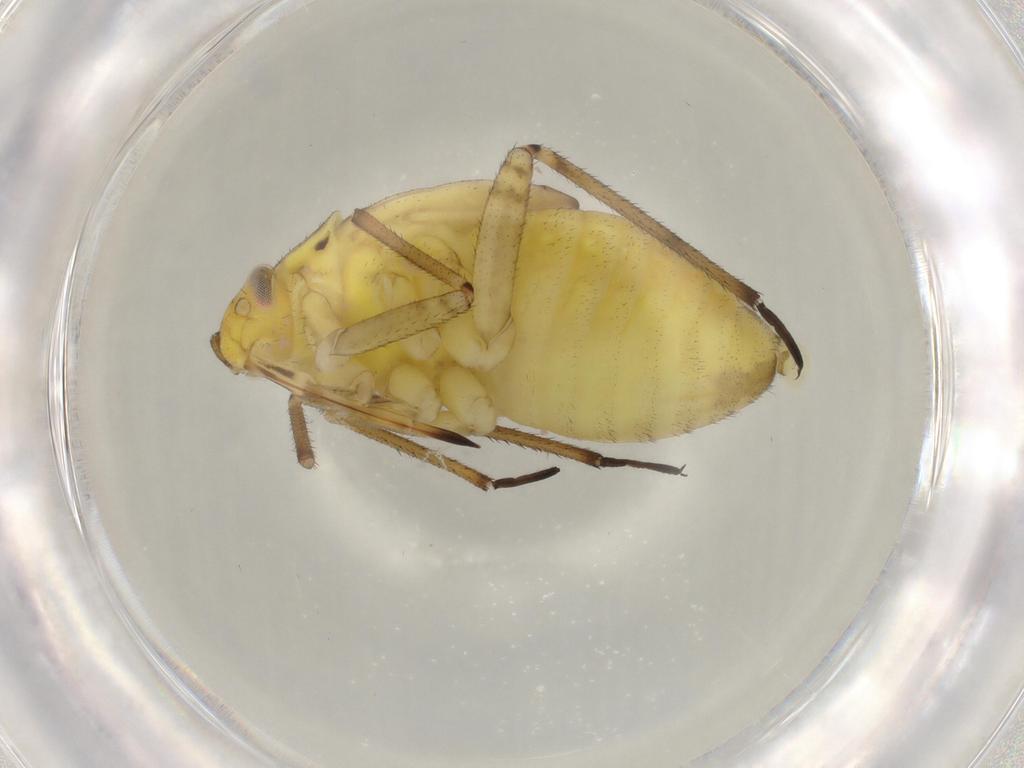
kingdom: Animalia
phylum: Arthropoda
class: Insecta
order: Hemiptera
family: Miridae
